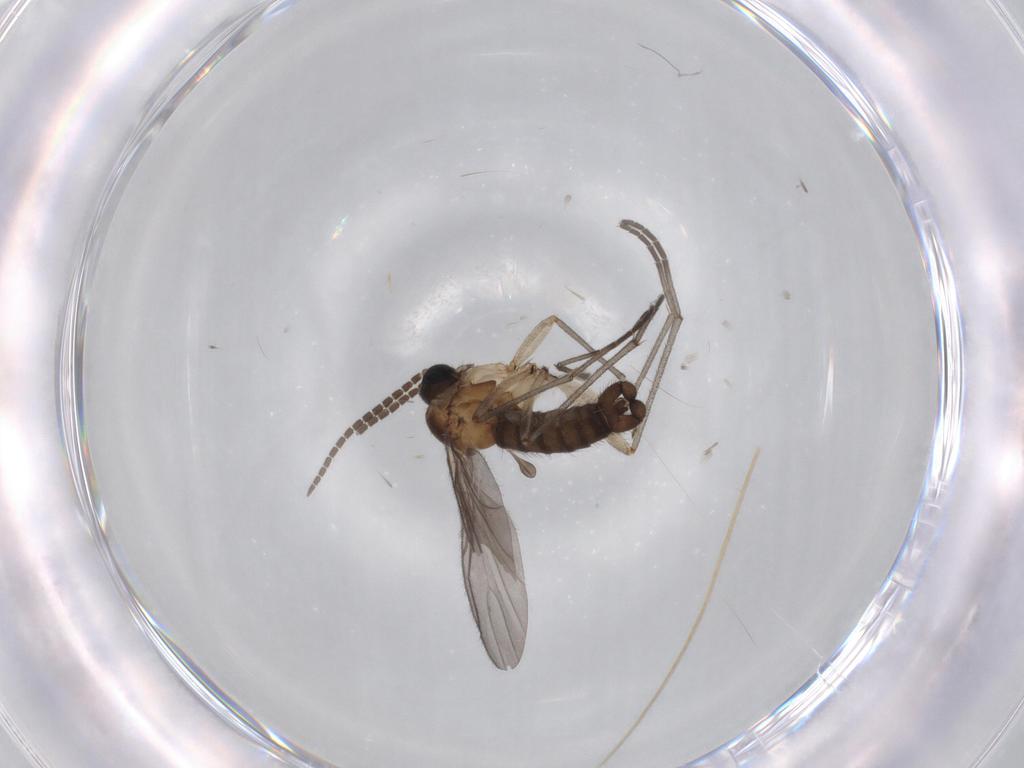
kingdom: Animalia
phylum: Arthropoda
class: Insecta
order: Diptera
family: Sciaridae
